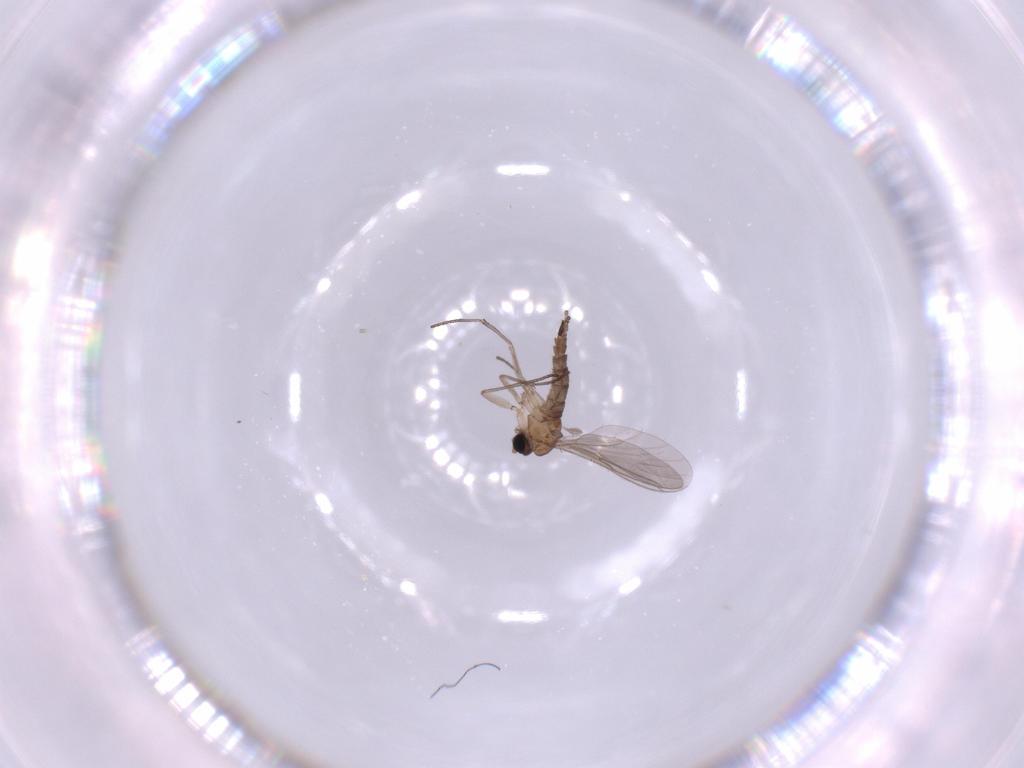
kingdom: Animalia
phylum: Arthropoda
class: Insecta
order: Diptera
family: Sciaridae
